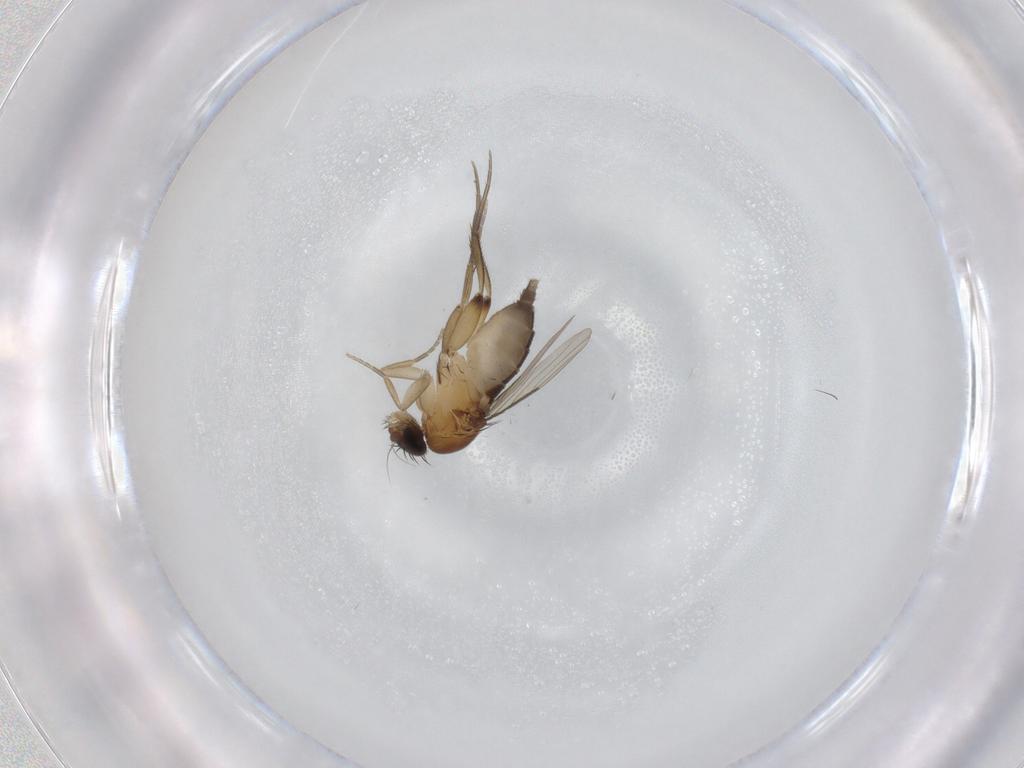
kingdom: Animalia
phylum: Arthropoda
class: Insecta
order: Diptera
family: Phoridae
